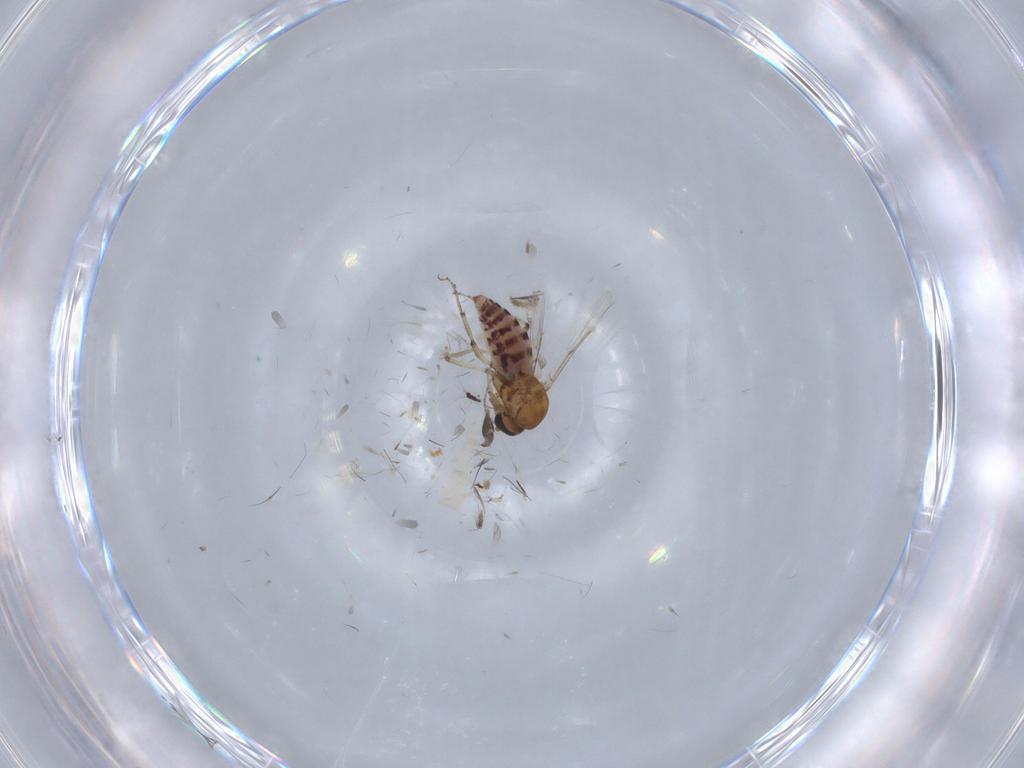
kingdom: Animalia
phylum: Arthropoda
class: Insecta
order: Diptera
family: Ceratopogonidae
